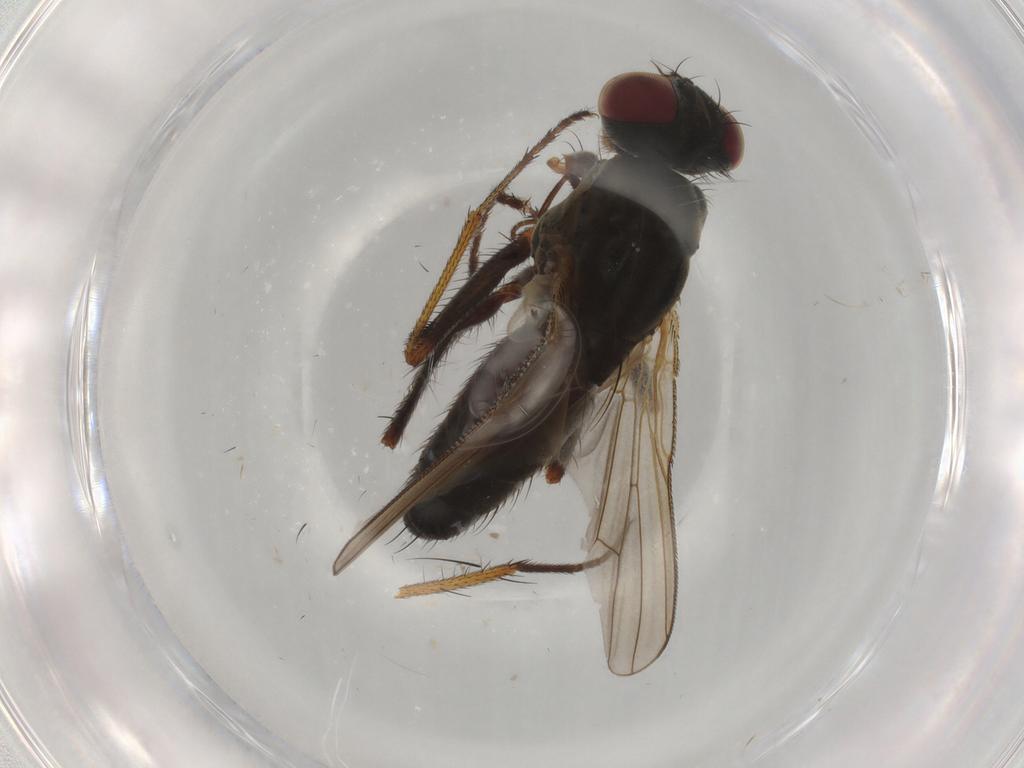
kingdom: Animalia
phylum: Arthropoda
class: Insecta
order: Diptera
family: Muscidae
